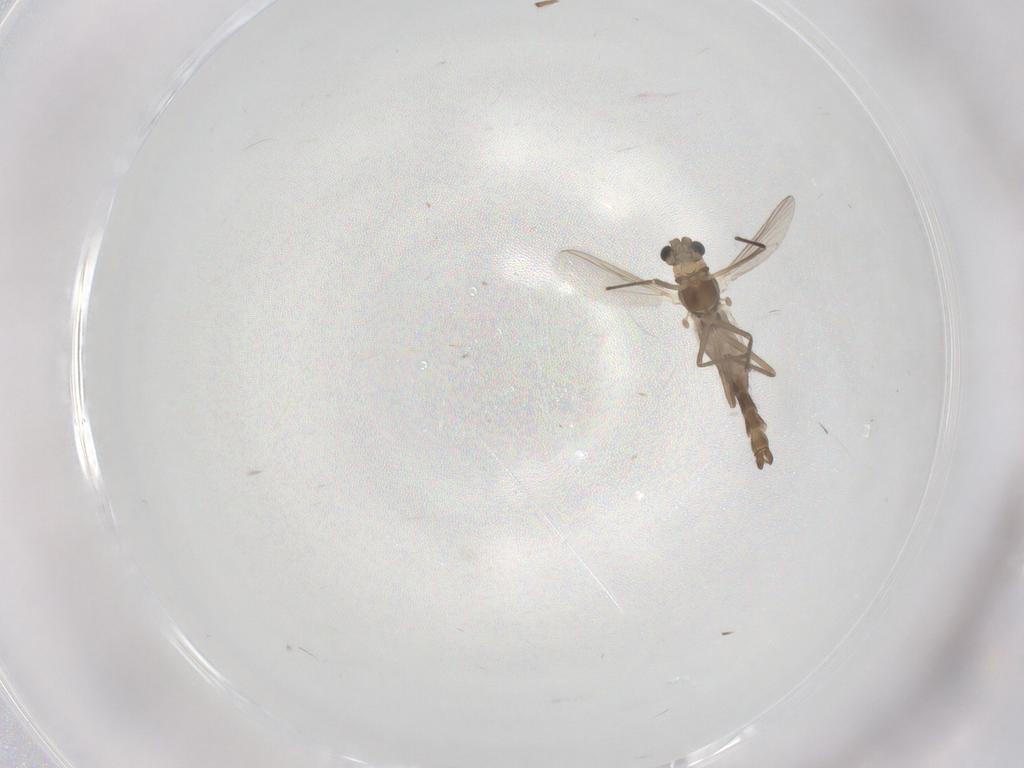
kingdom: Animalia
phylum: Arthropoda
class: Insecta
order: Diptera
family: Chironomidae
